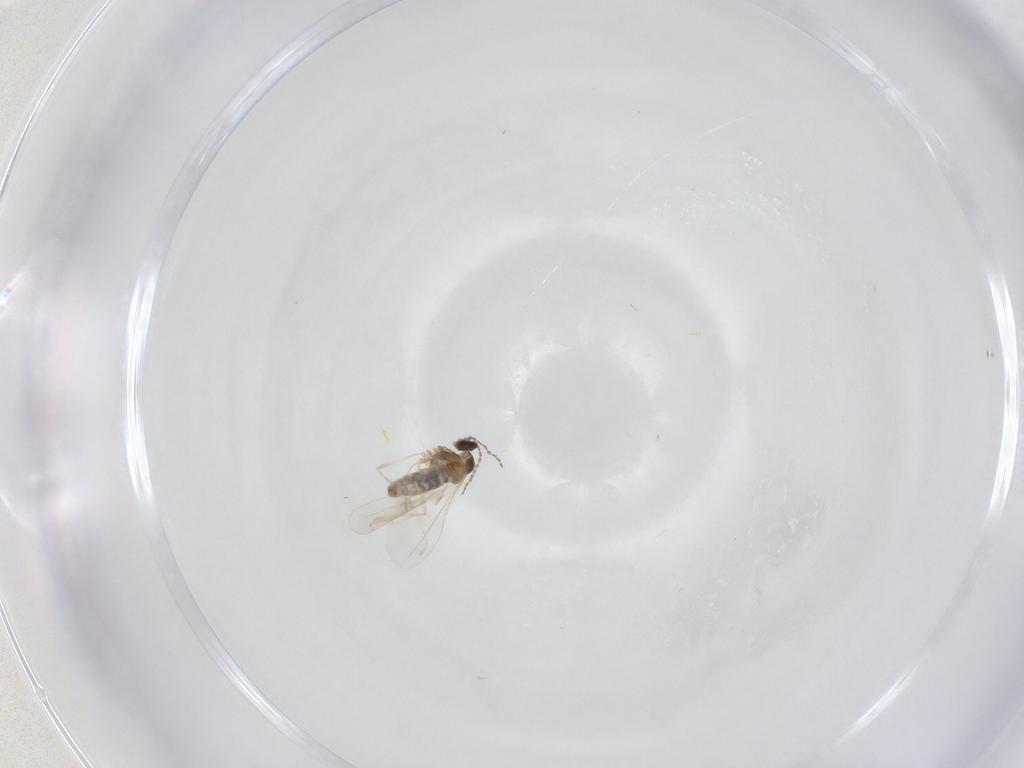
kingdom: Animalia
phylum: Arthropoda
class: Insecta
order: Diptera
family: Cecidomyiidae
